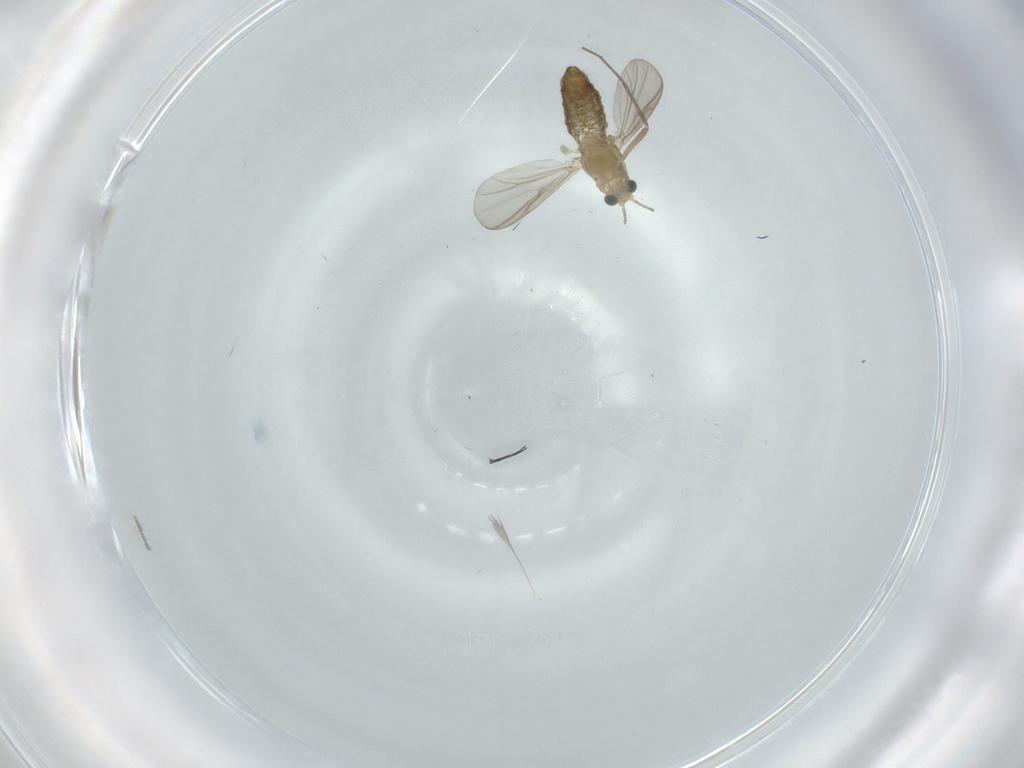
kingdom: Animalia
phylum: Arthropoda
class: Insecta
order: Diptera
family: Chironomidae
